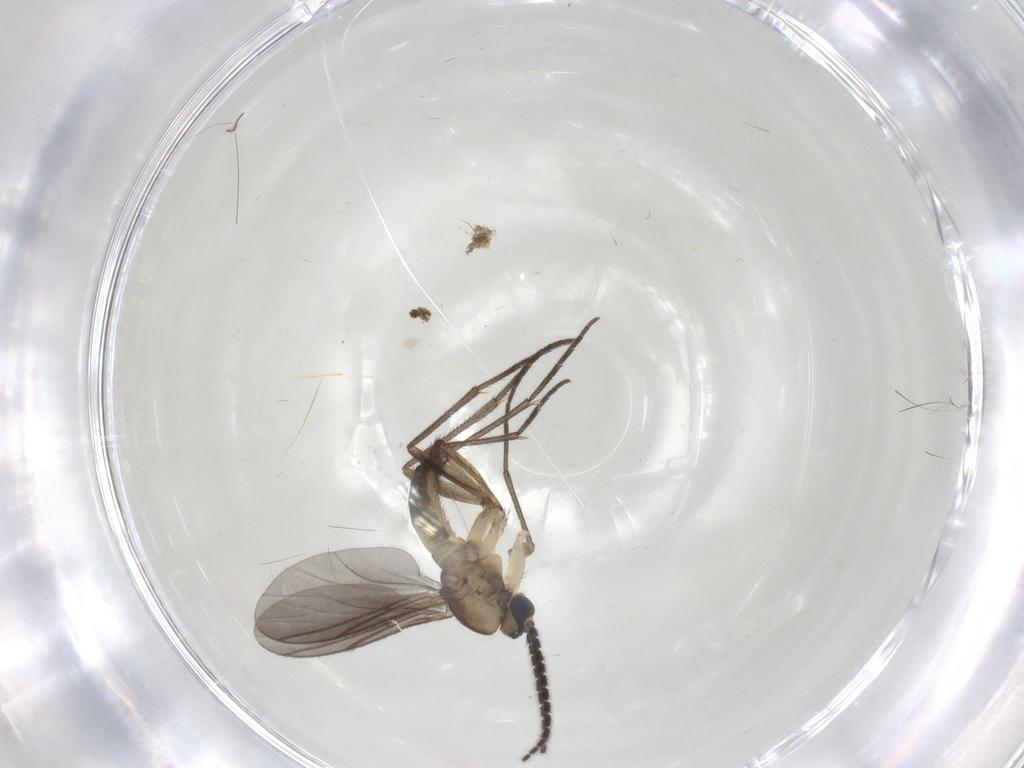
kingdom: Animalia
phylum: Arthropoda
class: Insecta
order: Diptera
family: Sciaridae
